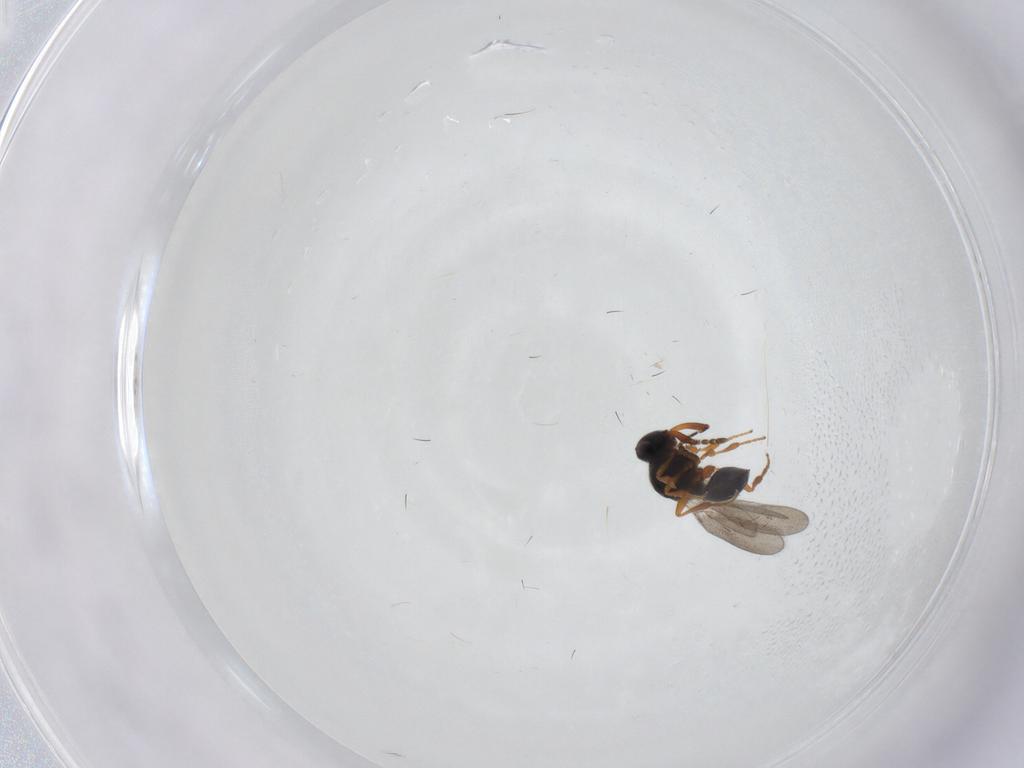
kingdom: Animalia
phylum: Arthropoda
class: Insecta
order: Hymenoptera
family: Platygastridae
